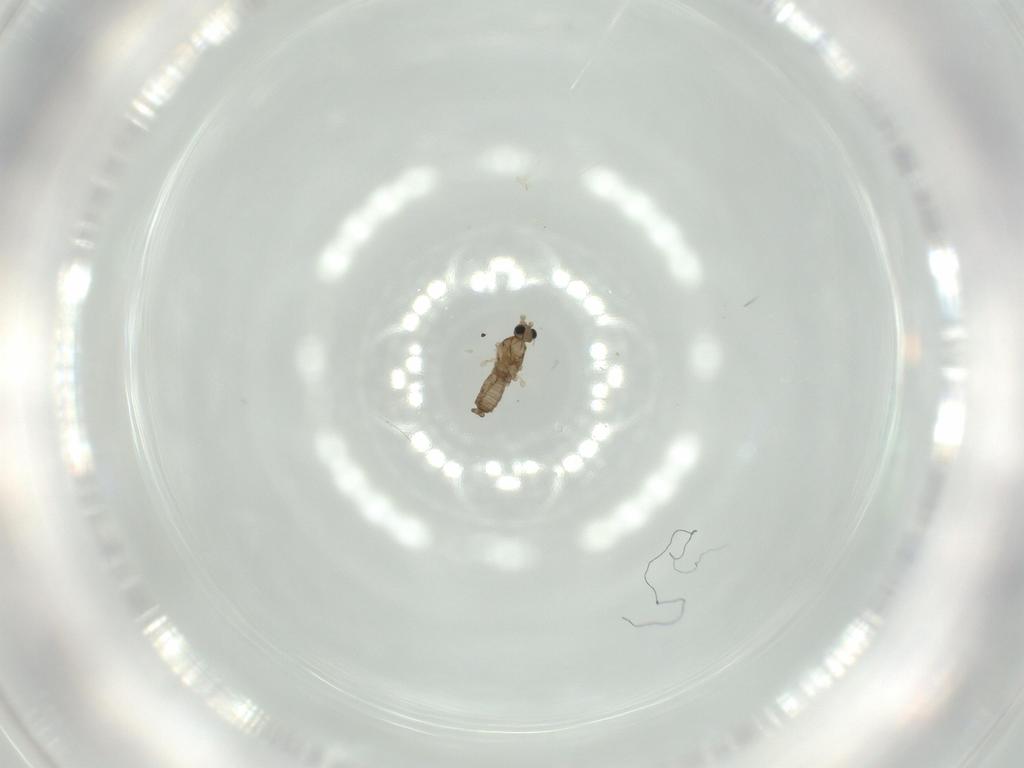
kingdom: Animalia
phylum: Arthropoda
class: Insecta
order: Diptera
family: Cecidomyiidae
